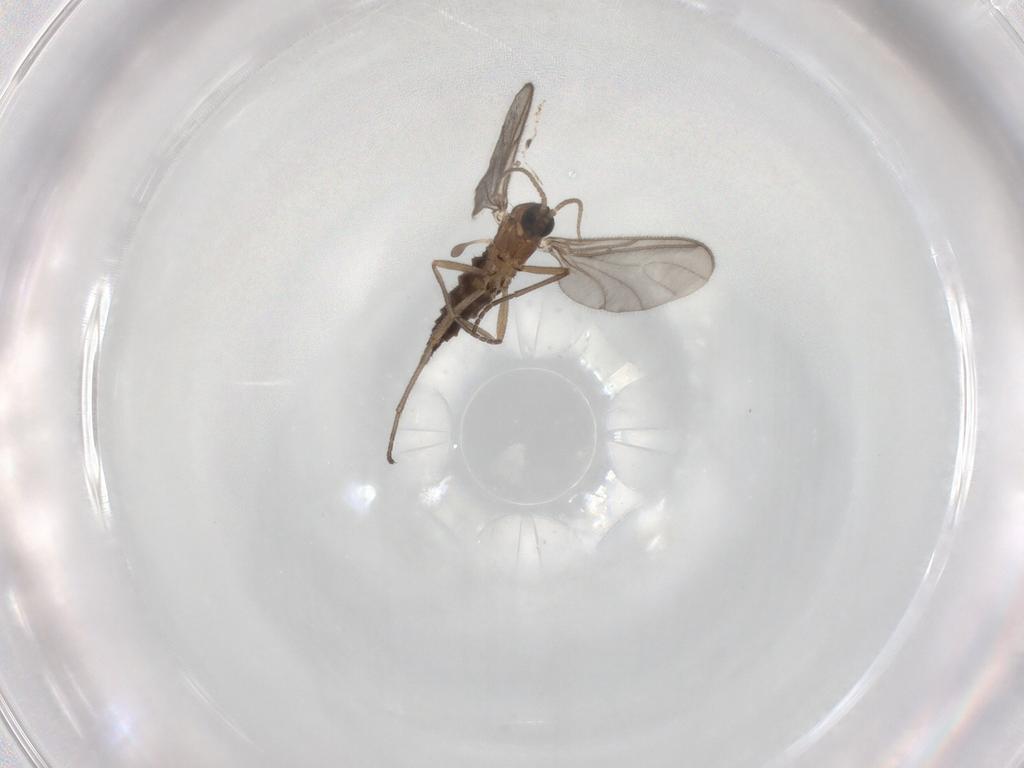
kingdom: Animalia
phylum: Arthropoda
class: Insecta
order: Diptera
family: Sciaridae
